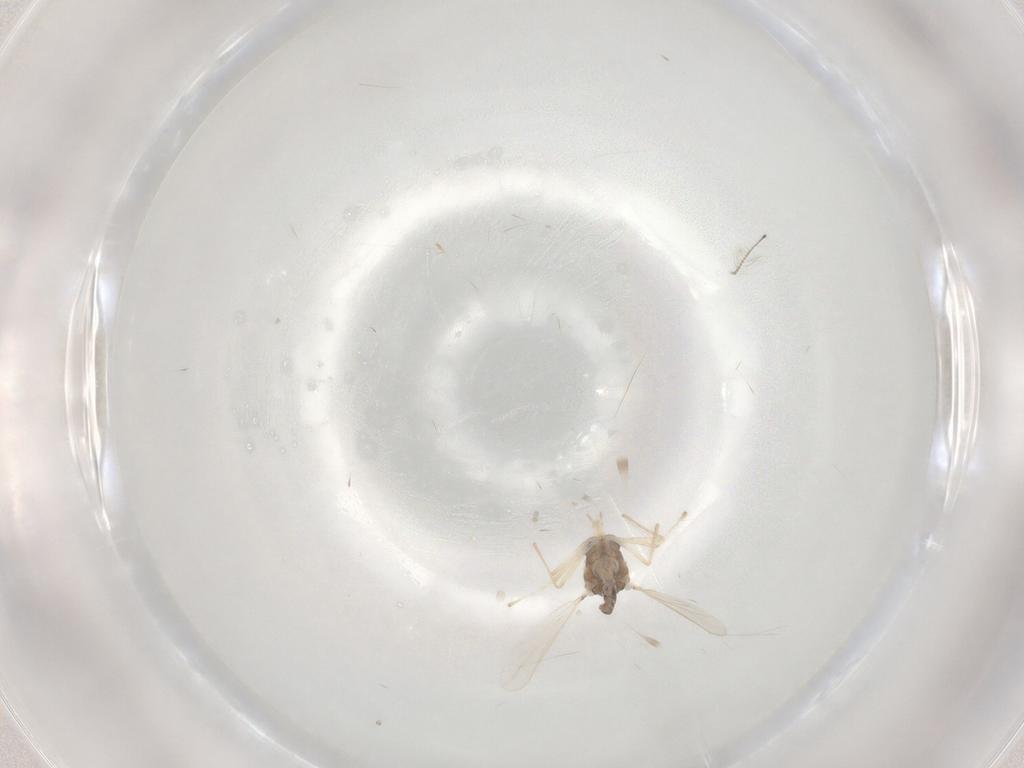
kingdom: Animalia
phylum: Arthropoda
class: Insecta
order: Diptera
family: Chironomidae
